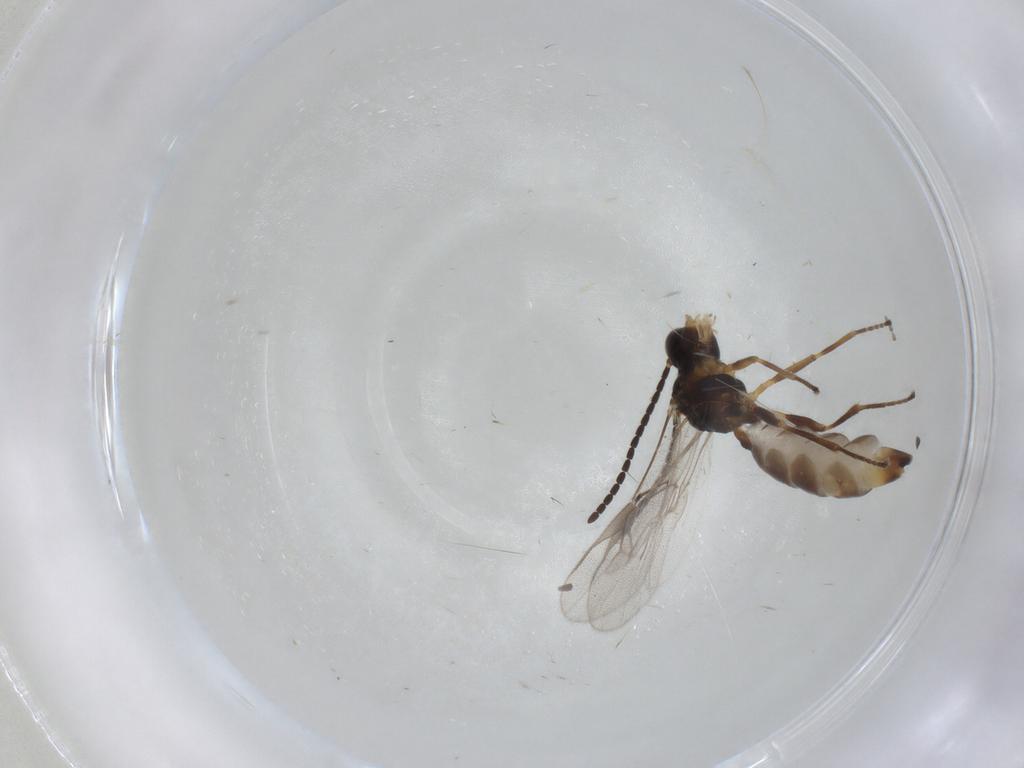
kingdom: Animalia
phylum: Arthropoda
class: Insecta
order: Hymenoptera
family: Braconidae
